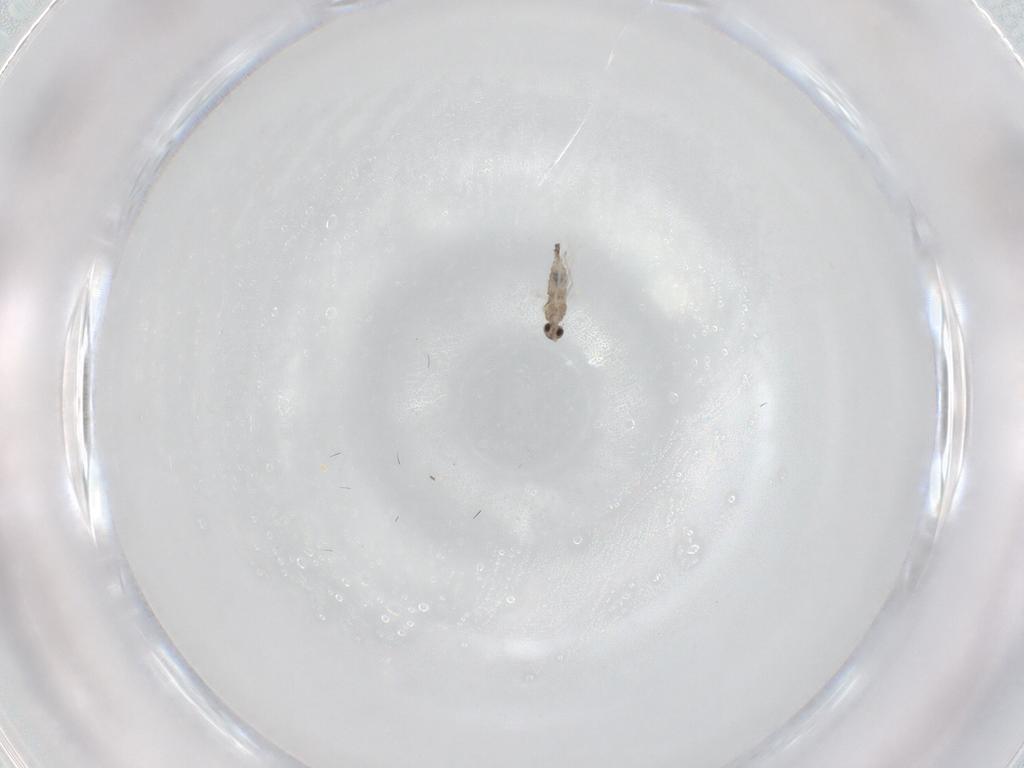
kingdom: Animalia
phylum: Arthropoda
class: Insecta
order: Diptera
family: Cecidomyiidae
